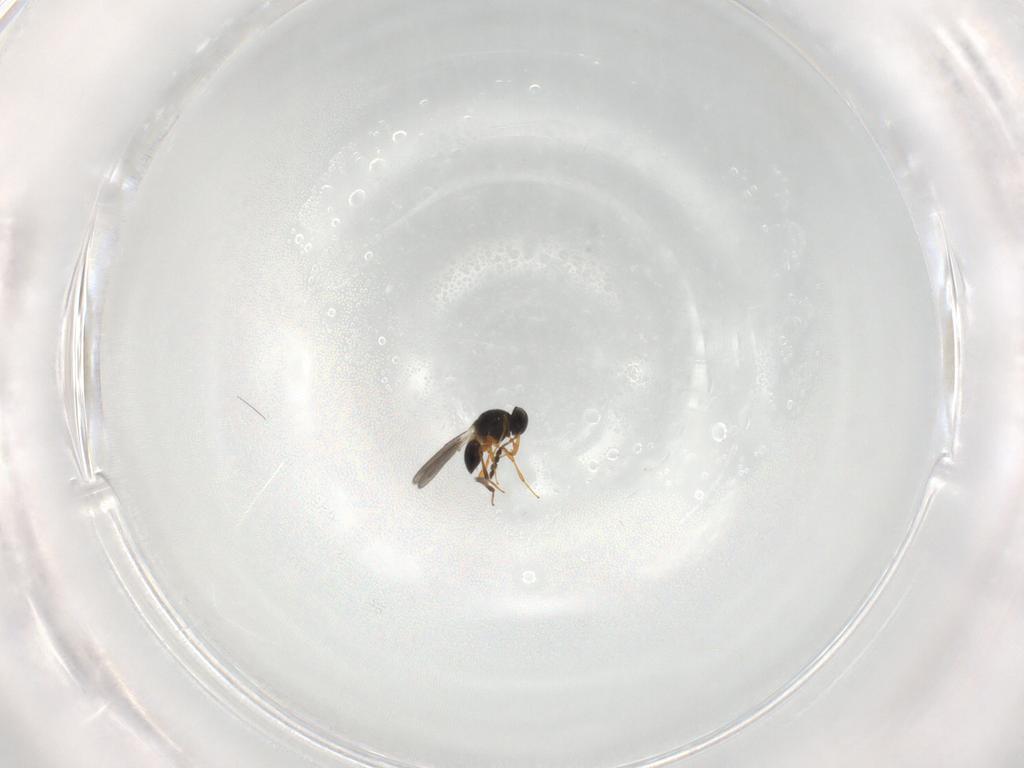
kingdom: Animalia
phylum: Arthropoda
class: Insecta
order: Hymenoptera
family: Platygastridae
